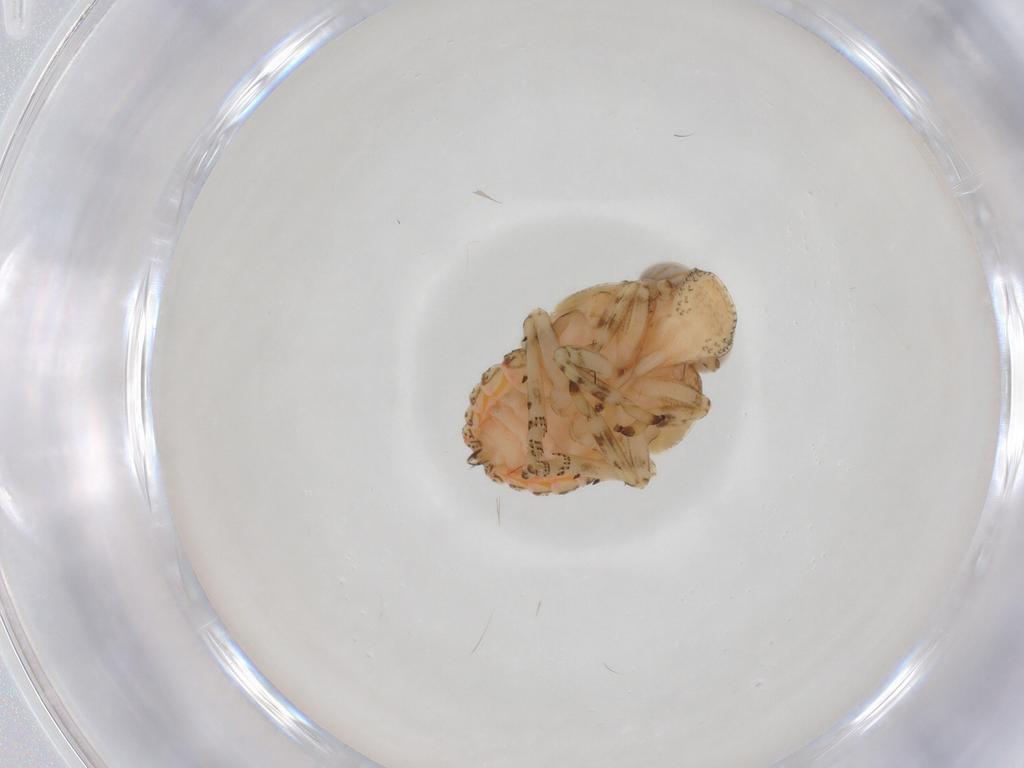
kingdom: Animalia
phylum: Arthropoda
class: Insecta
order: Hemiptera
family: Issidae
